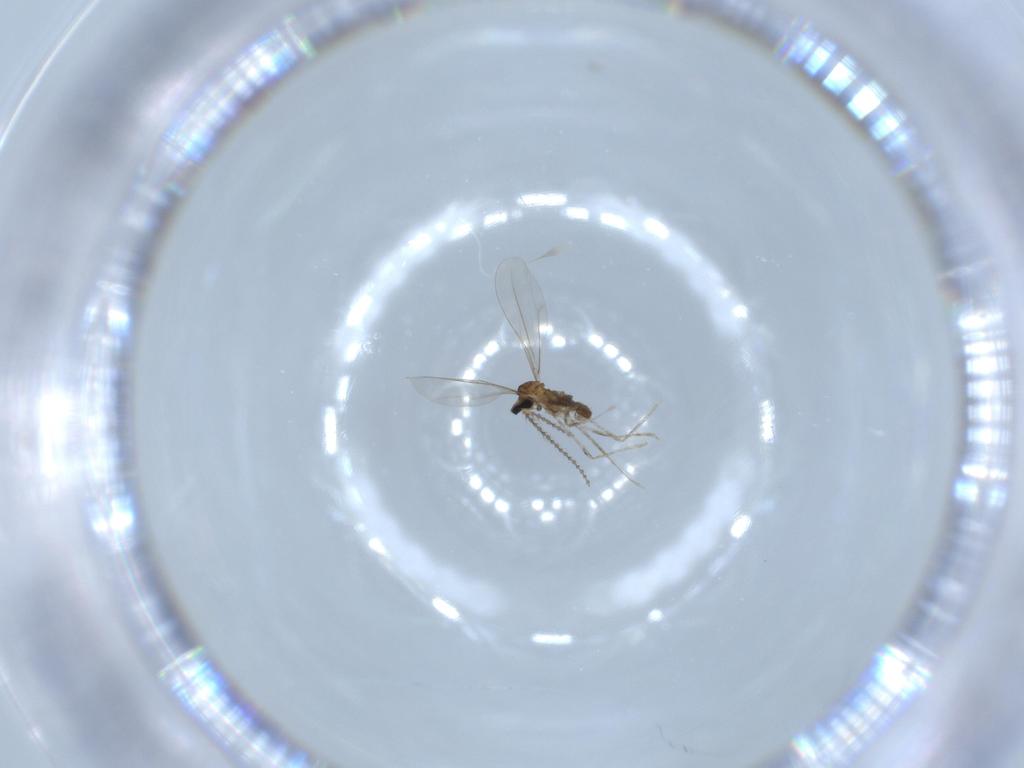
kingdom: Animalia
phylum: Arthropoda
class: Insecta
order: Diptera
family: Cecidomyiidae
